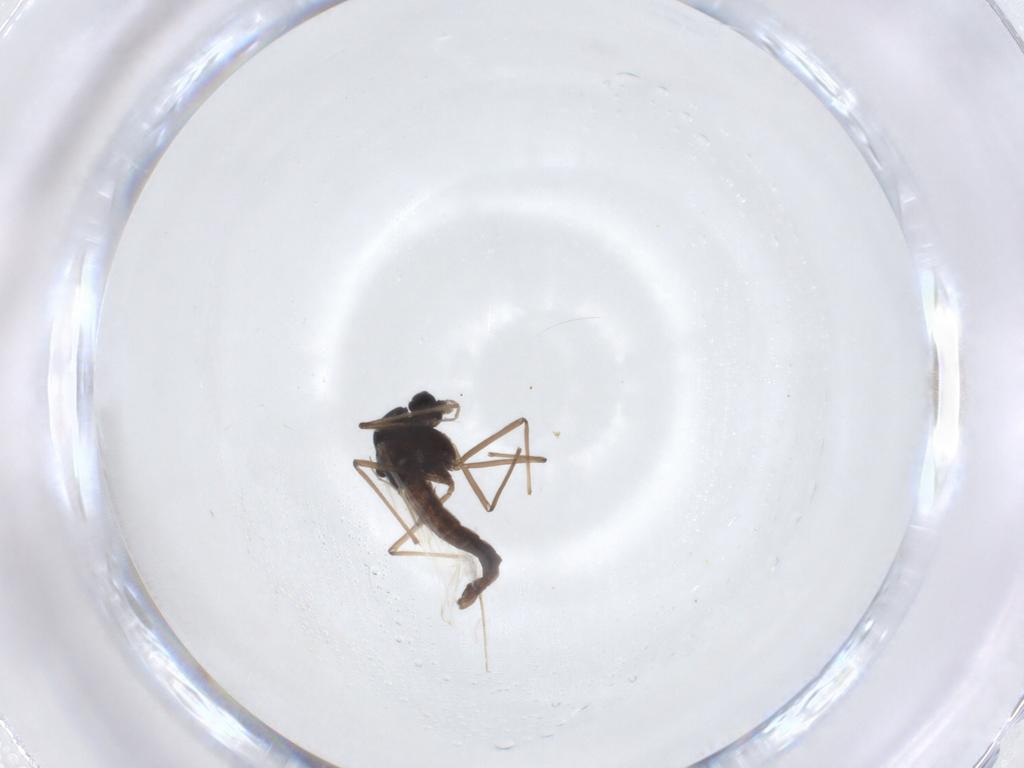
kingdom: Animalia
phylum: Arthropoda
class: Insecta
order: Diptera
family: Chironomidae
